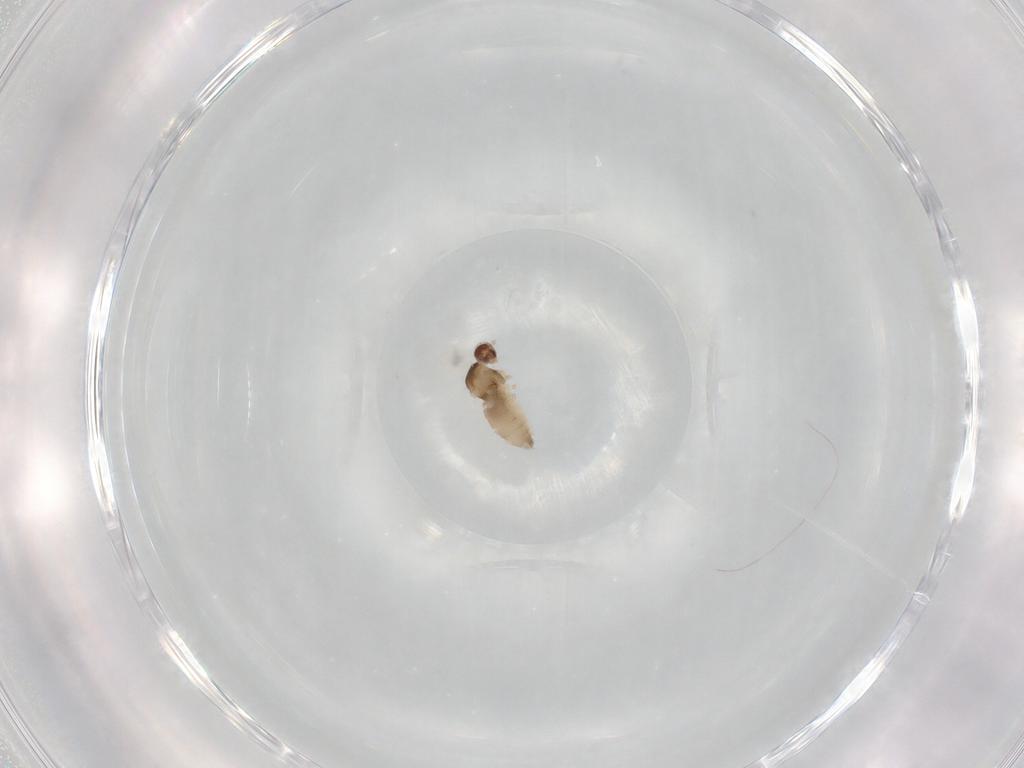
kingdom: Animalia
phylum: Arthropoda
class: Insecta
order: Diptera
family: Cecidomyiidae
